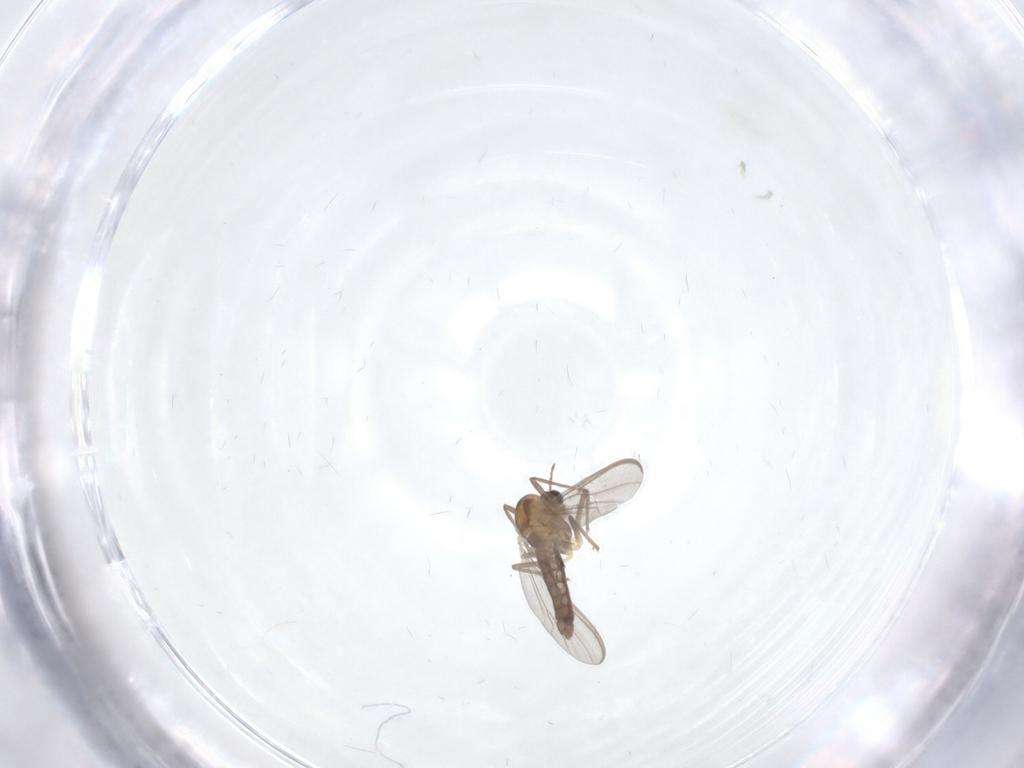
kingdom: Animalia
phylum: Arthropoda
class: Insecta
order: Diptera
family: Chironomidae
